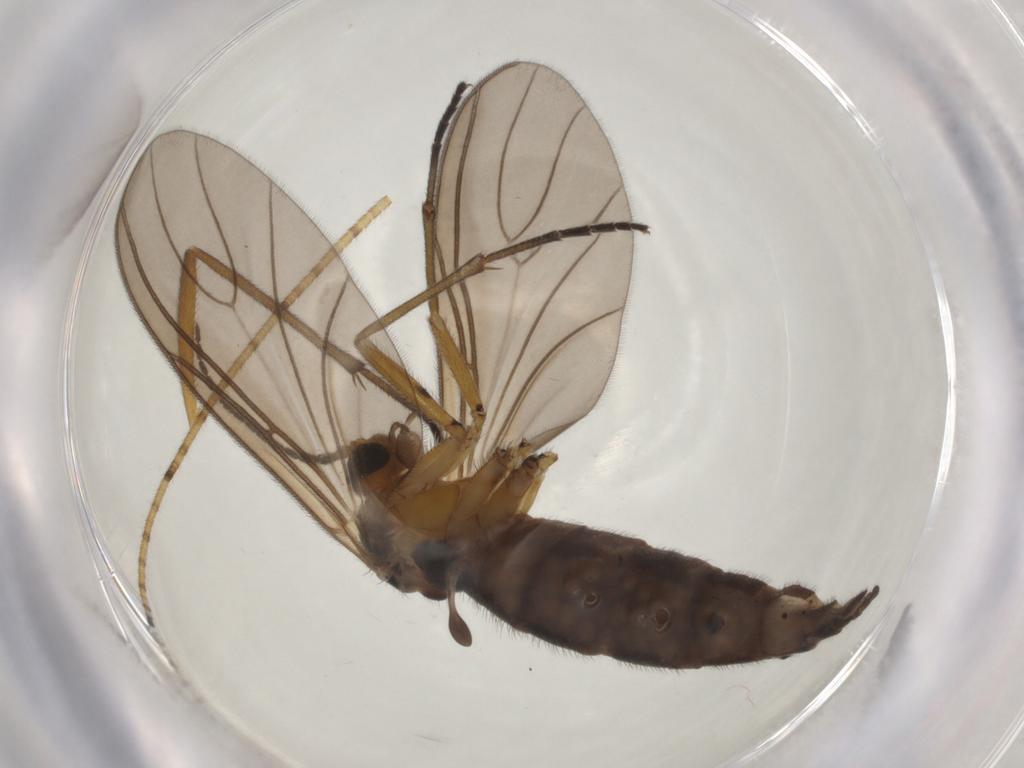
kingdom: Animalia
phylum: Arthropoda
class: Insecta
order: Diptera
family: Sciaridae
